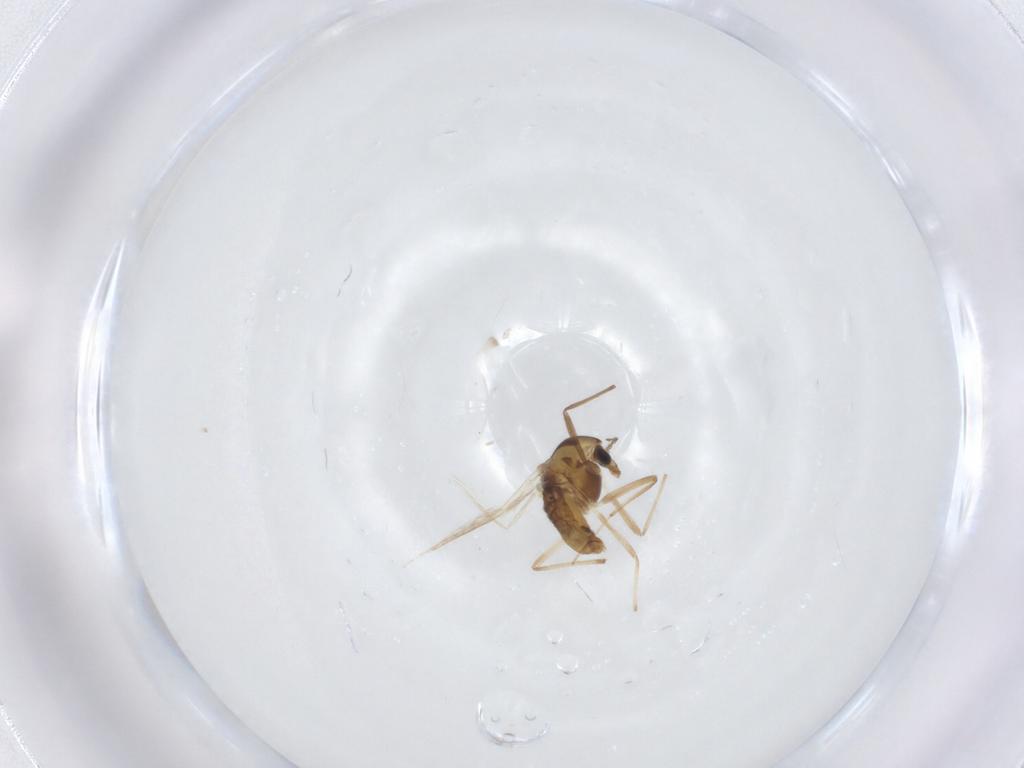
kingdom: Animalia
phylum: Arthropoda
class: Insecta
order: Diptera
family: Chironomidae
